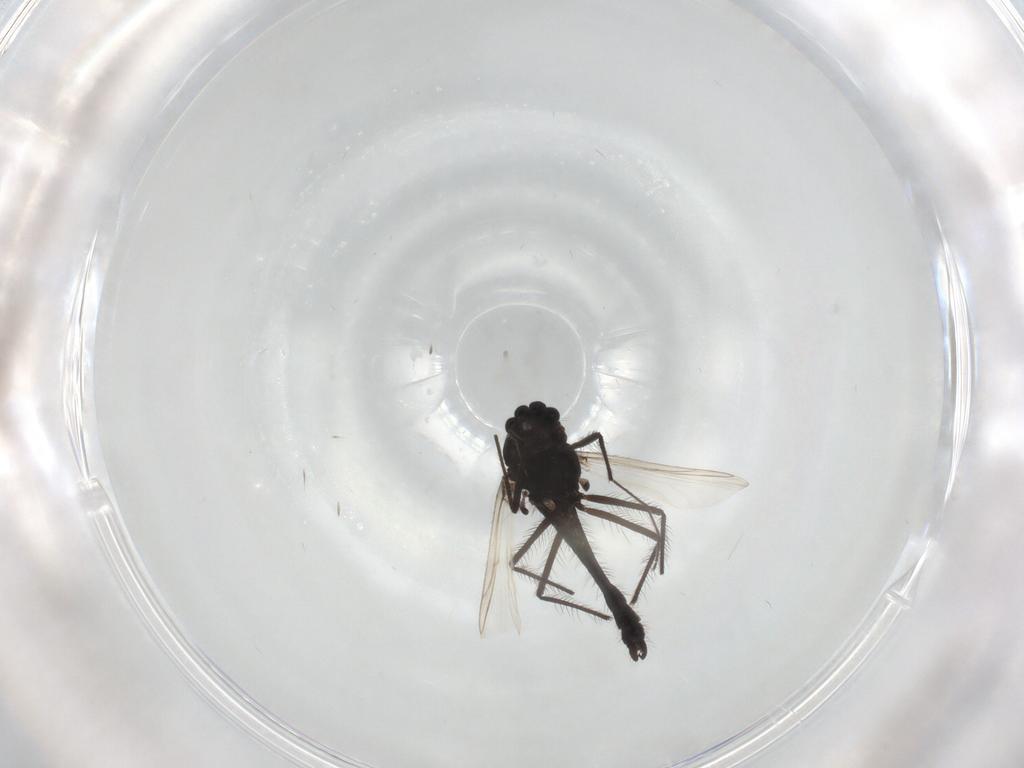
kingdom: Animalia
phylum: Arthropoda
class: Insecta
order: Diptera
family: Chironomidae
